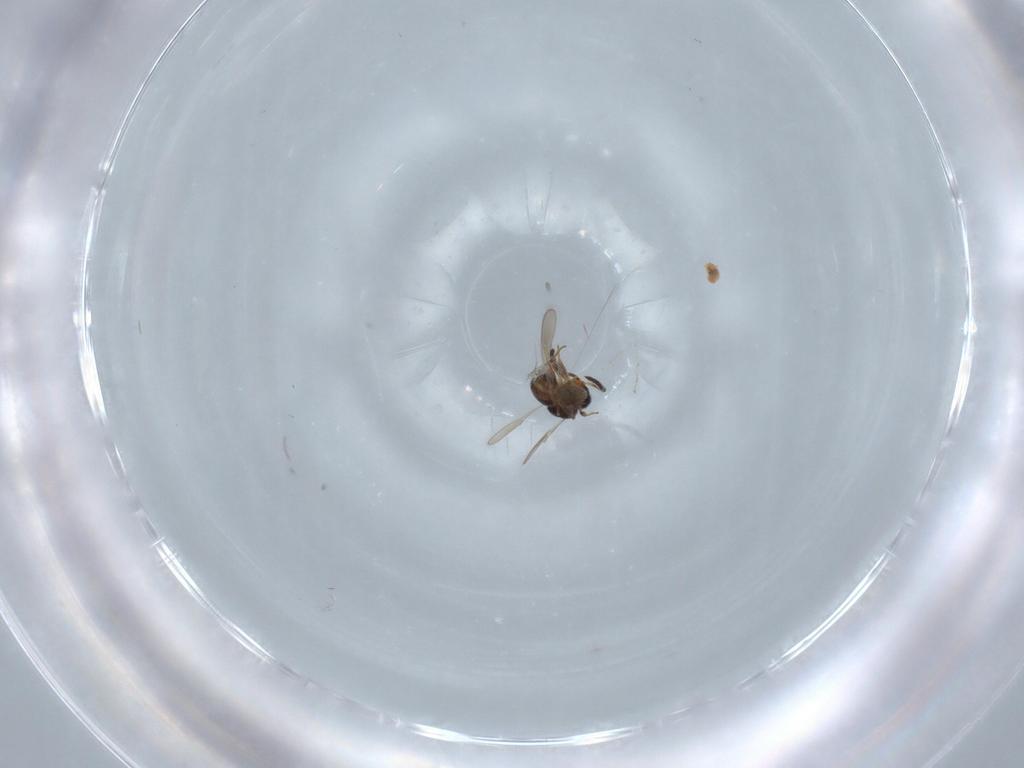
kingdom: Animalia
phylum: Arthropoda
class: Insecta
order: Hymenoptera
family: Scelionidae
